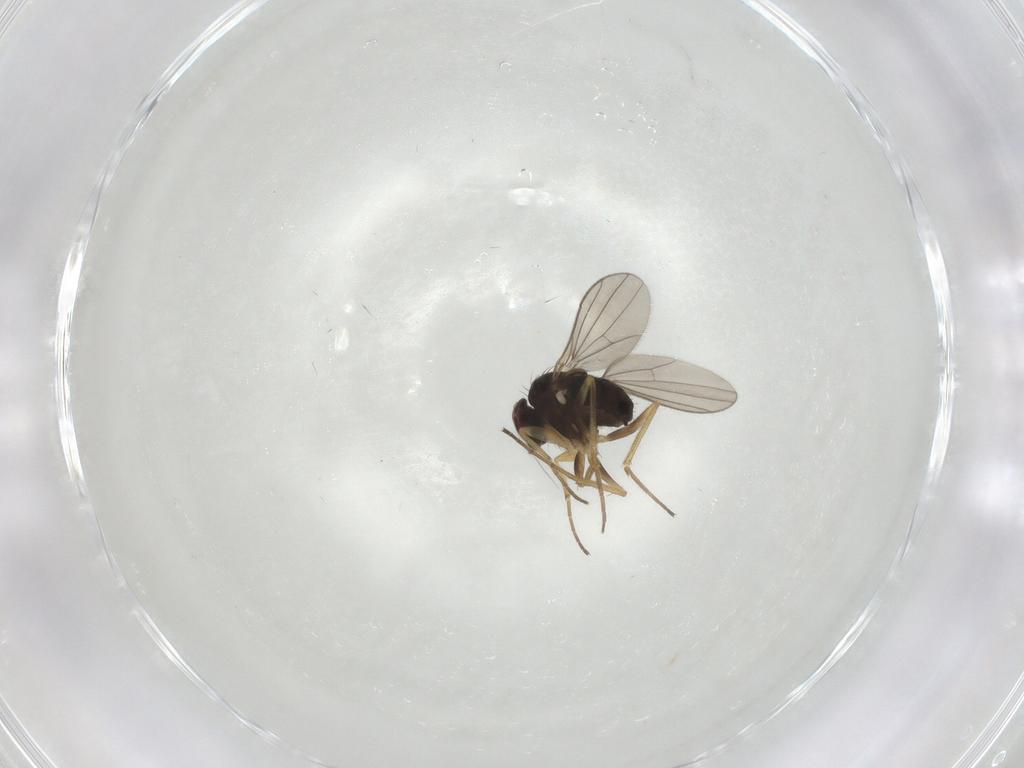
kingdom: Animalia
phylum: Arthropoda
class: Insecta
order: Diptera
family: Dolichopodidae
